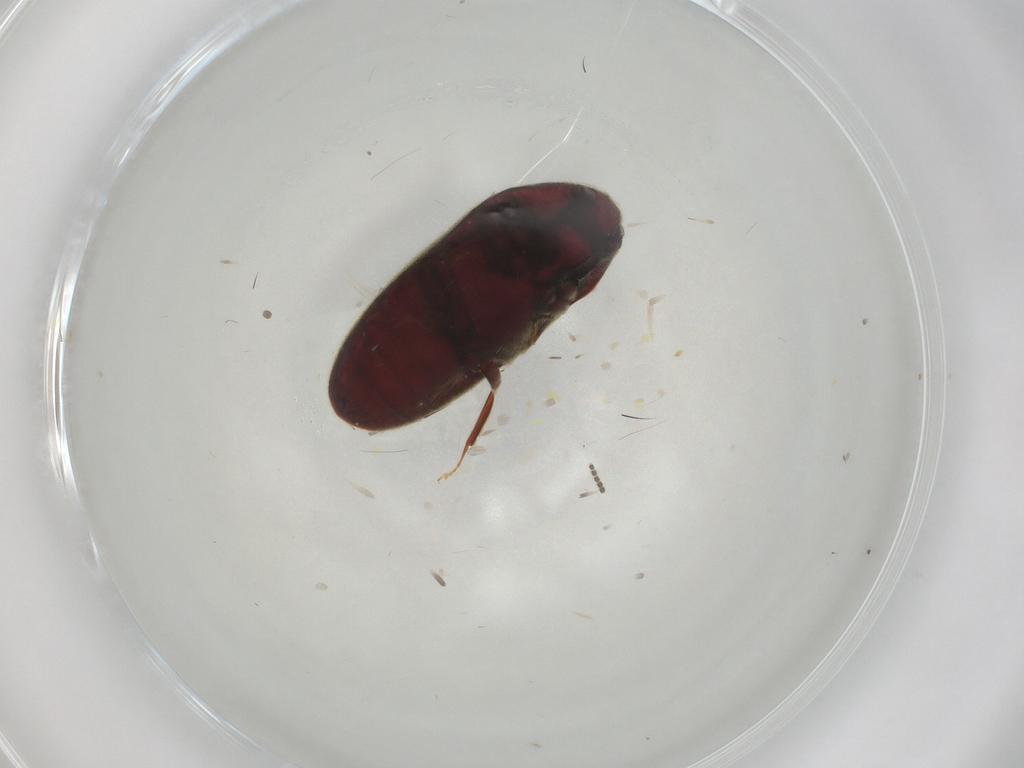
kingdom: Animalia
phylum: Arthropoda
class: Insecta
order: Coleoptera
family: Throscidae
